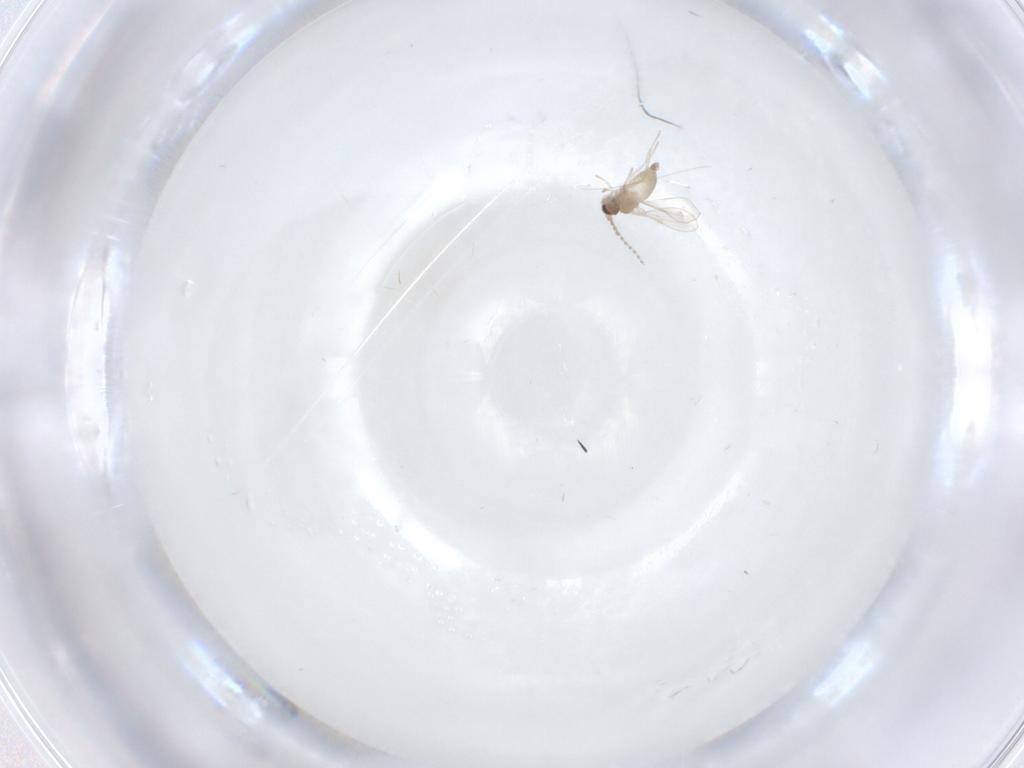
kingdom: Animalia
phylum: Arthropoda
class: Insecta
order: Diptera
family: Cecidomyiidae
